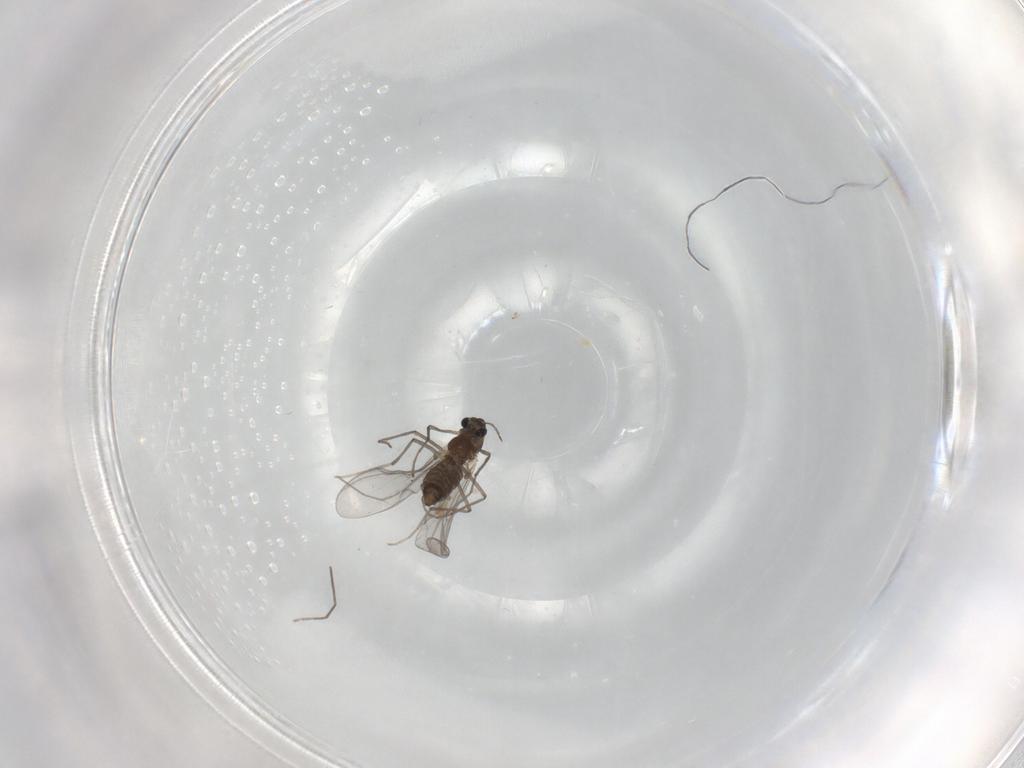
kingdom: Animalia
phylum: Arthropoda
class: Insecta
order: Diptera
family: Chironomidae
